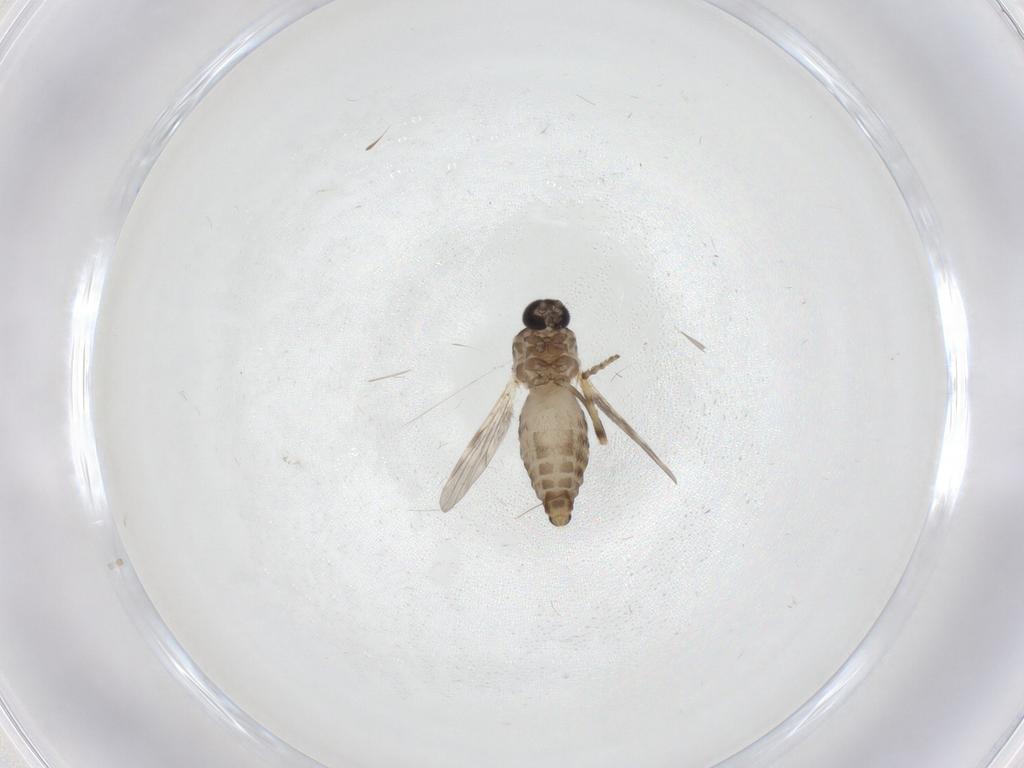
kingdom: Animalia
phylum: Arthropoda
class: Insecta
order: Diptera
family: Ceratopogonidae
